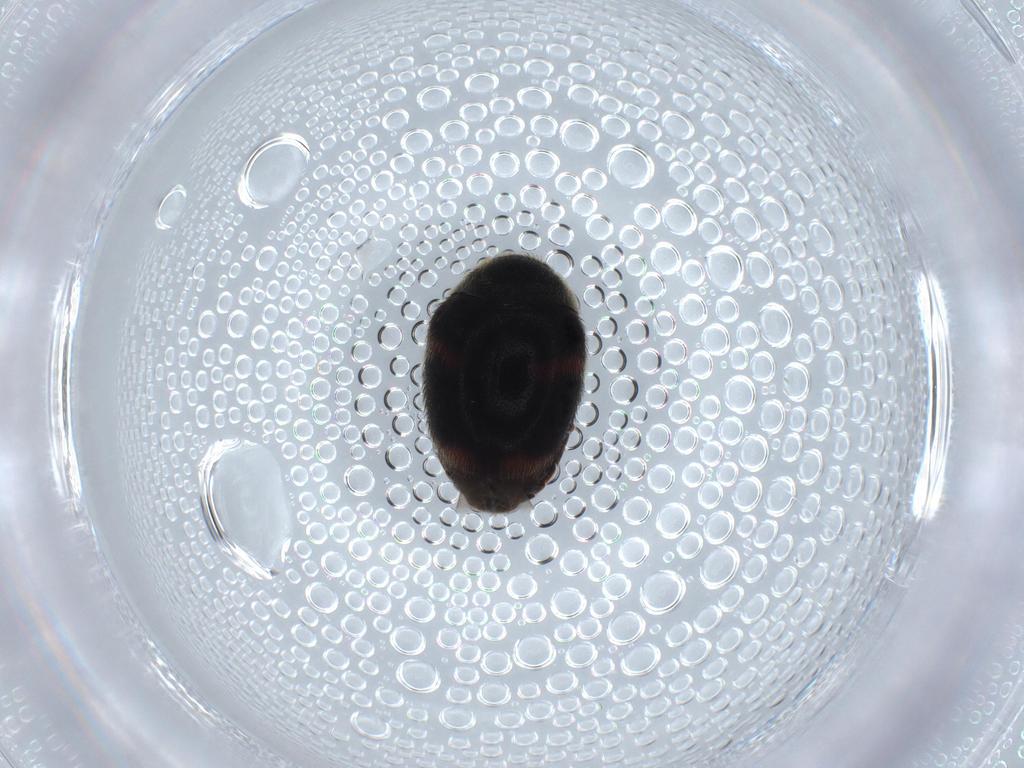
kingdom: Animalia
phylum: Arthropoda
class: Insecta
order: Coleoptera
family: Dermestidae
